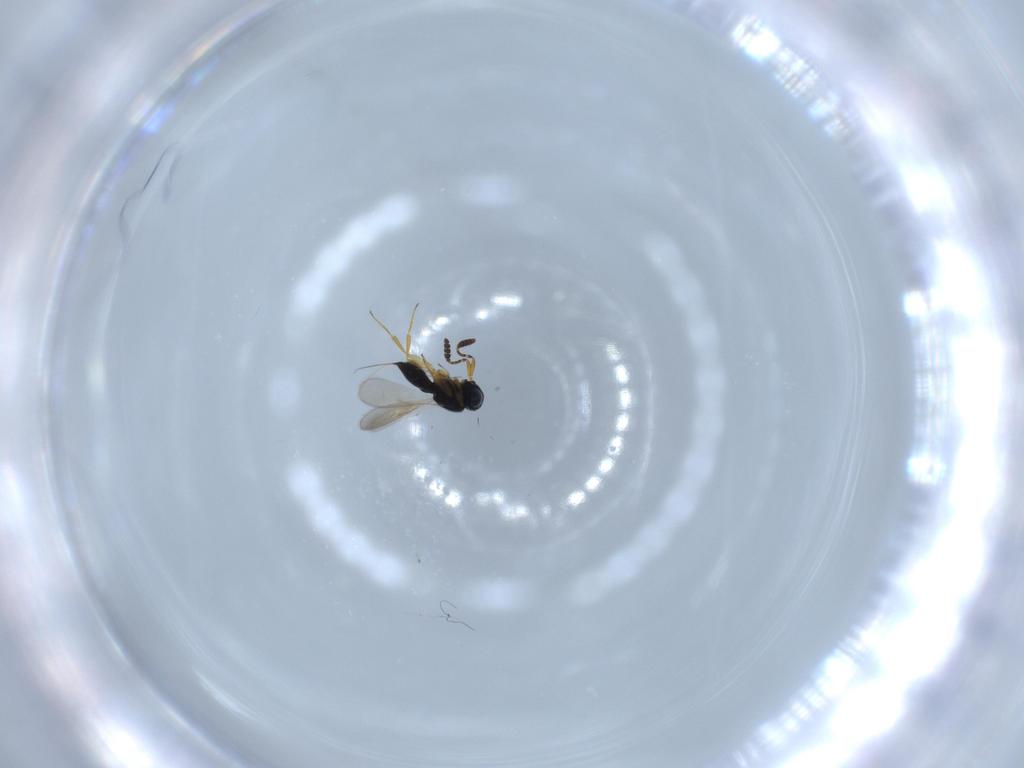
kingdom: Animalia
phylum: Arthropoda
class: Insecta
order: Hymenoptera
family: Scelionidae
